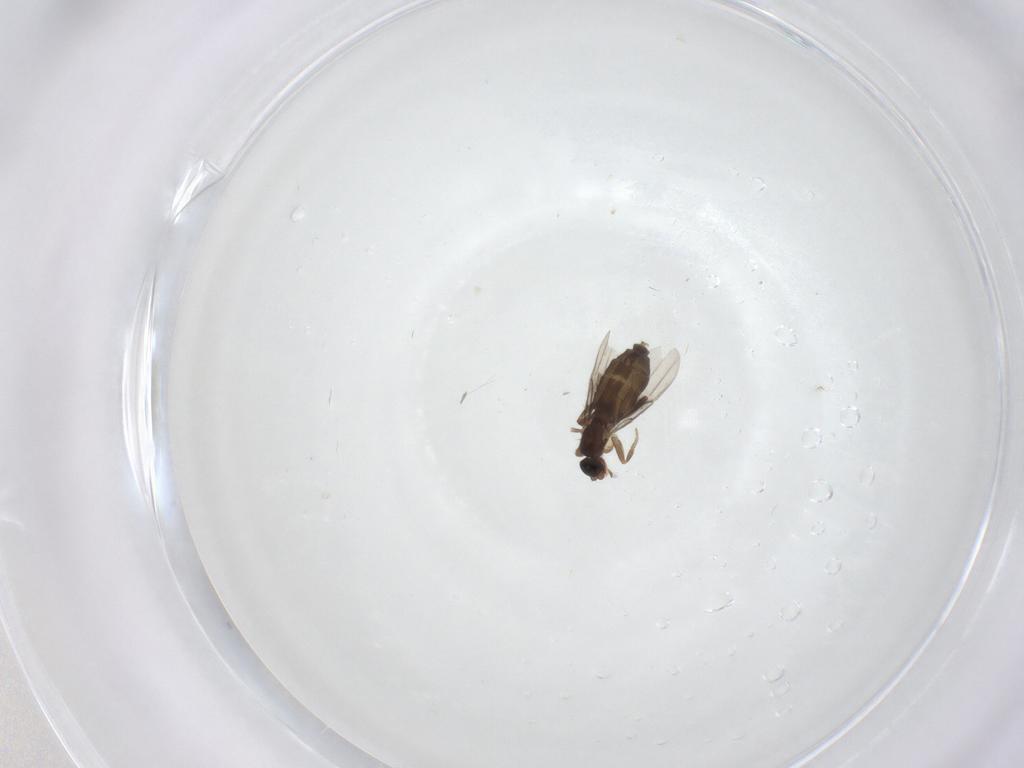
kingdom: Animalia
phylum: Arthropoda
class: Insecta
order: Diptera
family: Phoridae
